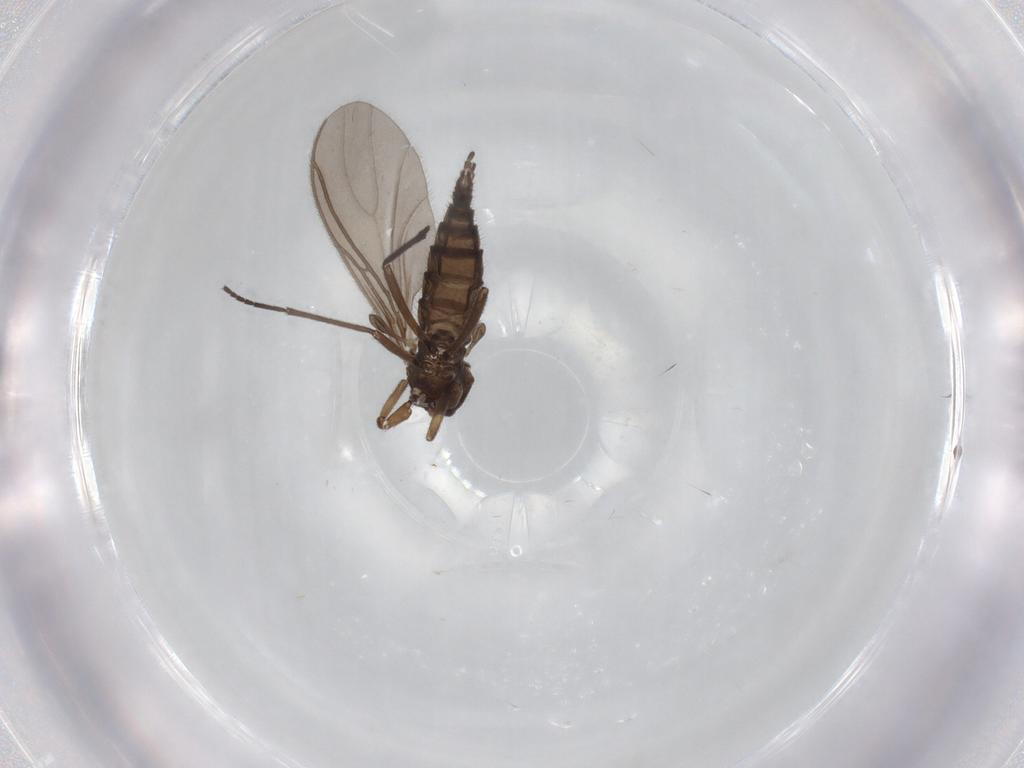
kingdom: Animalia
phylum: Arthropoda
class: Insecta
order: Diptera
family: Sciaridae
